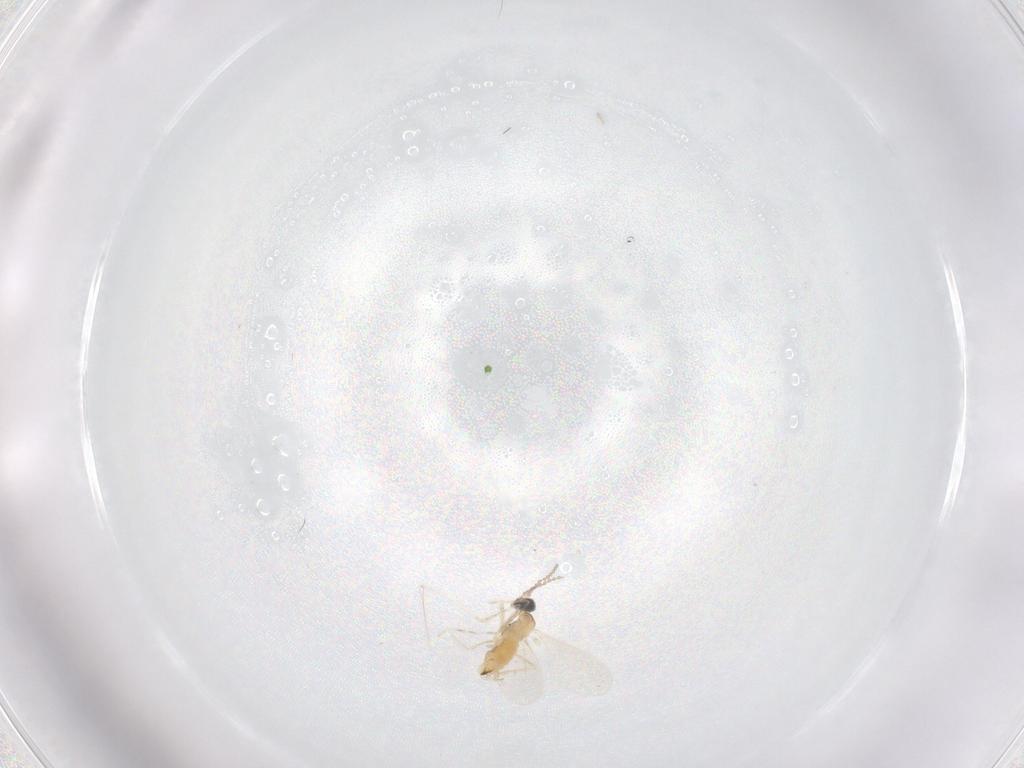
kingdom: Animalia
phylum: Arthropoda
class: Insecta
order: Diptera
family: Cecidomyiidae
